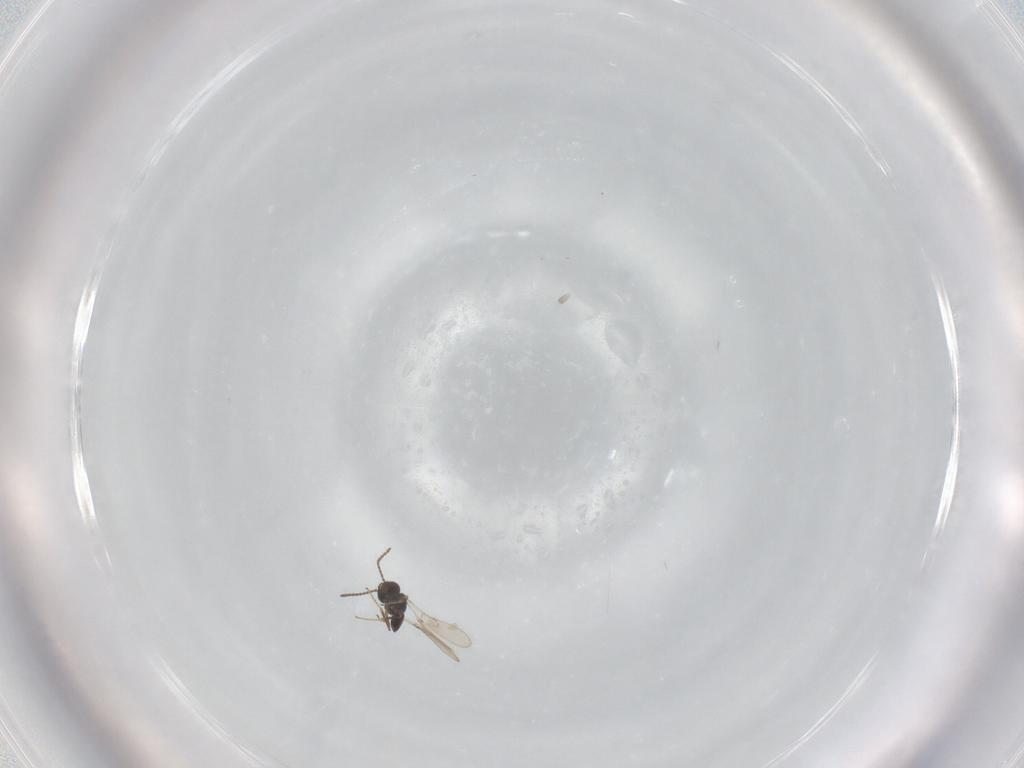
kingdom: Animalia
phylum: Arthropoda
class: Insecta
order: Hymenoptera
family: Scelionidae
